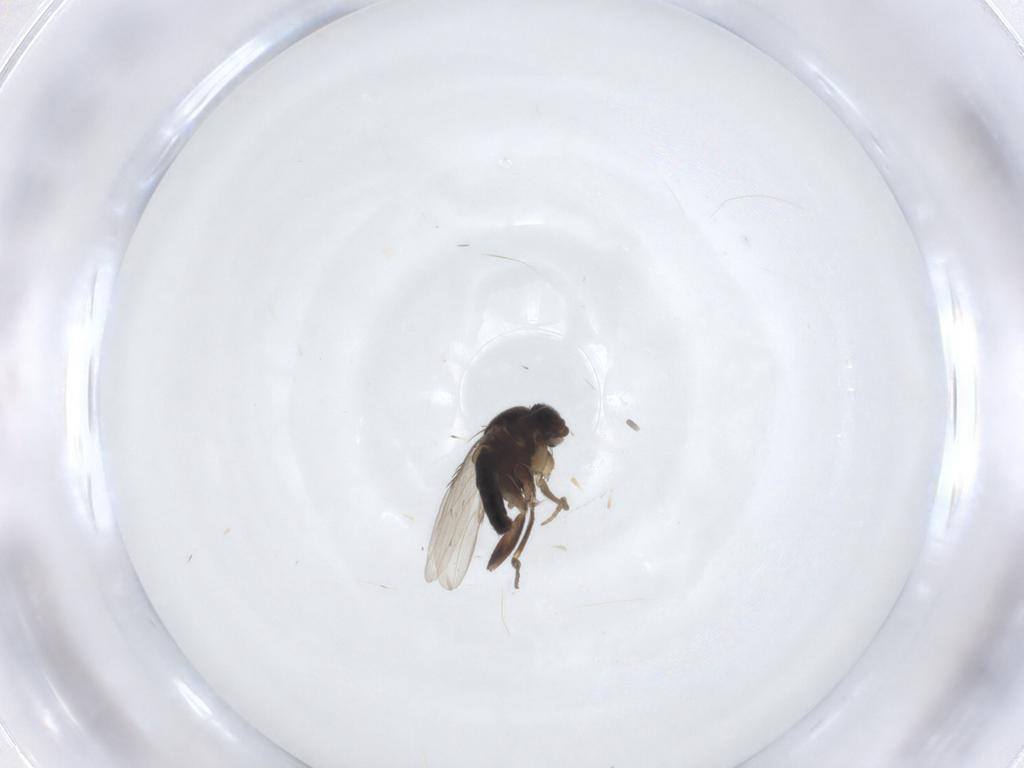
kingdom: Animalia
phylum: Arthropoda
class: Insecta
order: Diptera
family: Phoridae
